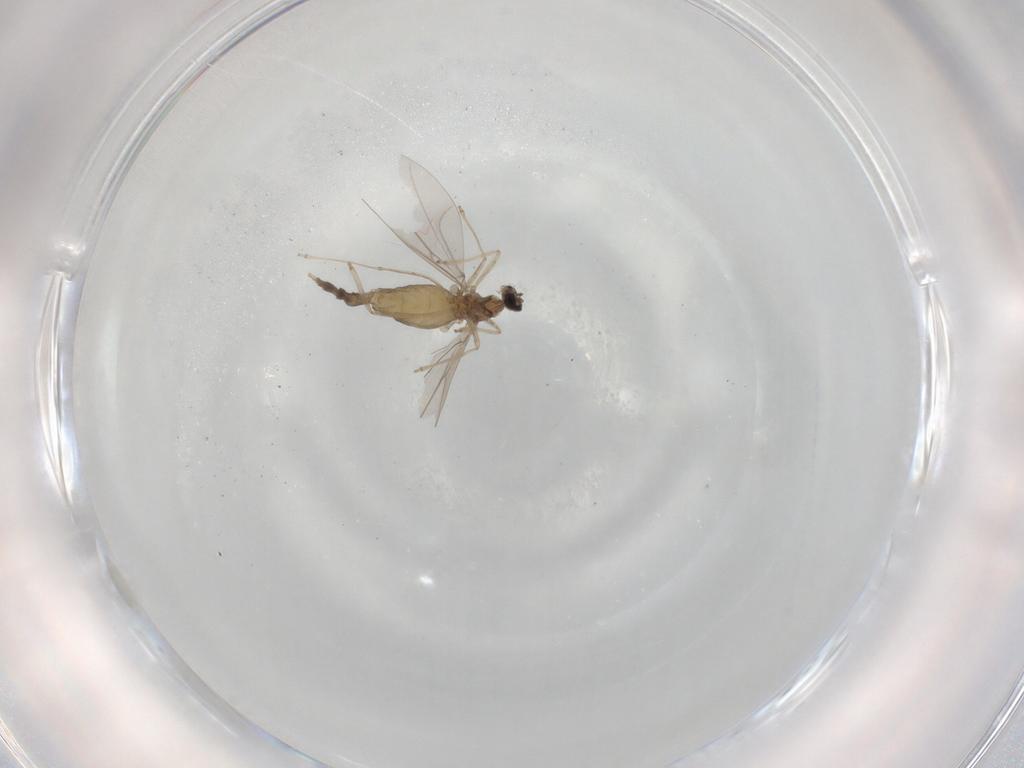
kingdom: Animalia
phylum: Arthropoda
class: Insecta
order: Diptera
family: Cecidomyiidae
